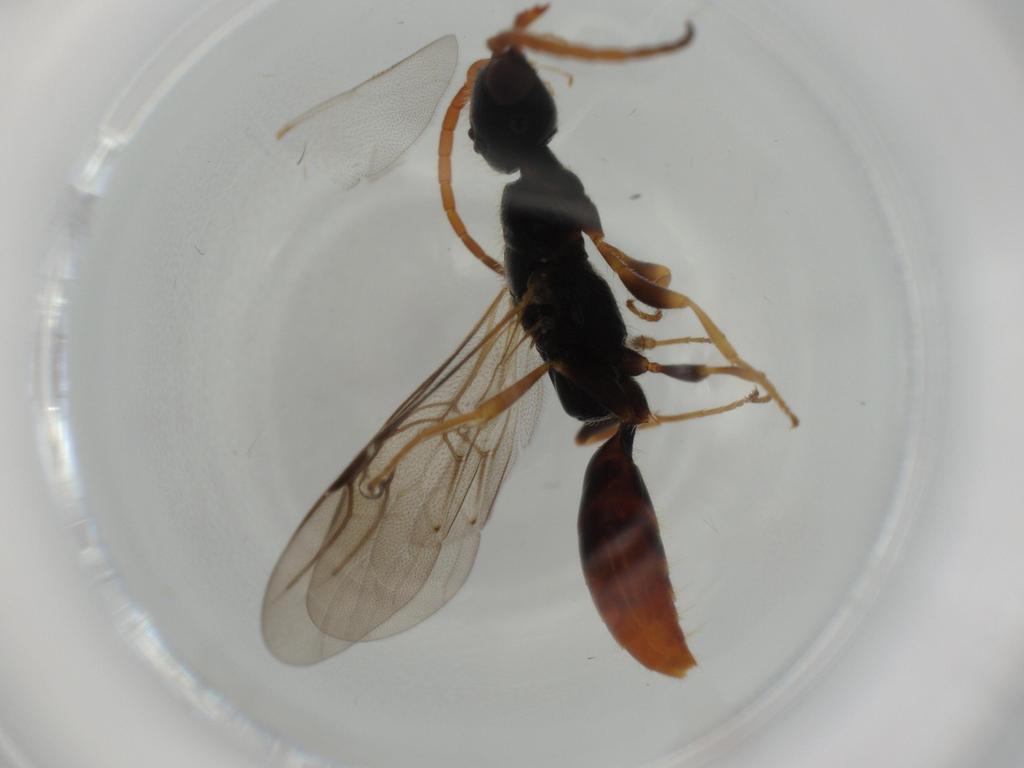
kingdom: Animalia
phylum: Arthropoda
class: Insecta
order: Hymenoptera
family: Bethylidae
